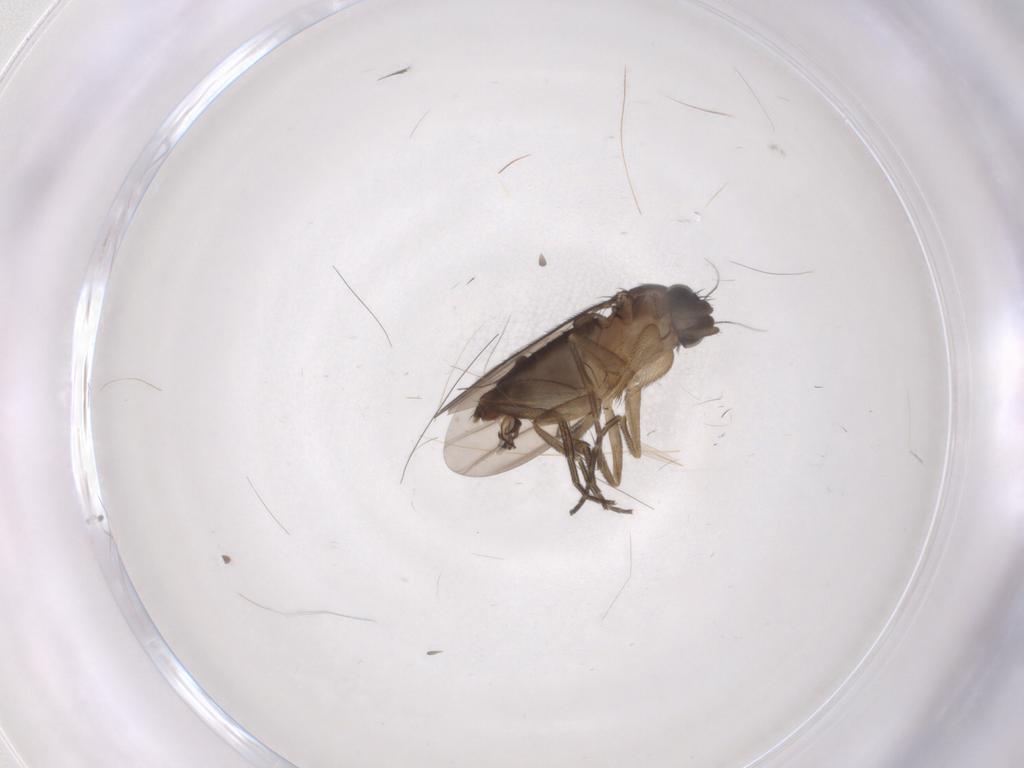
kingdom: Animalia
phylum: Arthropoda
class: Insecta
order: Diptera
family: Phoridae
